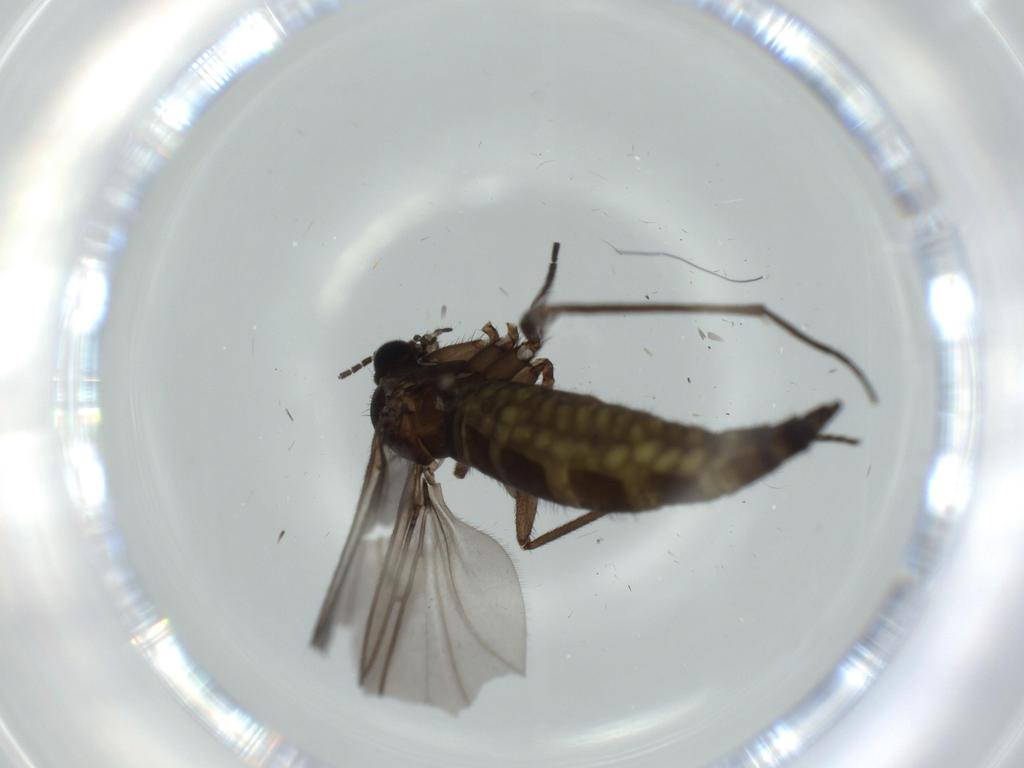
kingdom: Animalia
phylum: Arthropoda
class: Insecta
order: Diptera
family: Sciaridae
